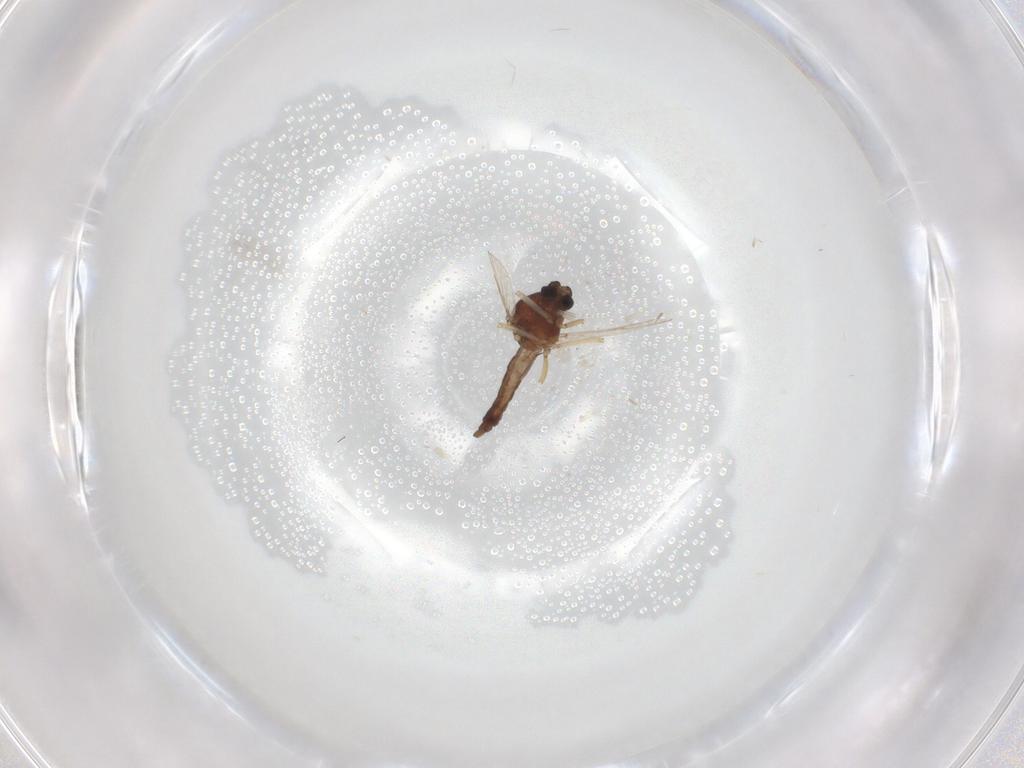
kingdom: Animalia
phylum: Arthropoda
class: Insecta
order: Diptera
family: Ceratopogonidae
